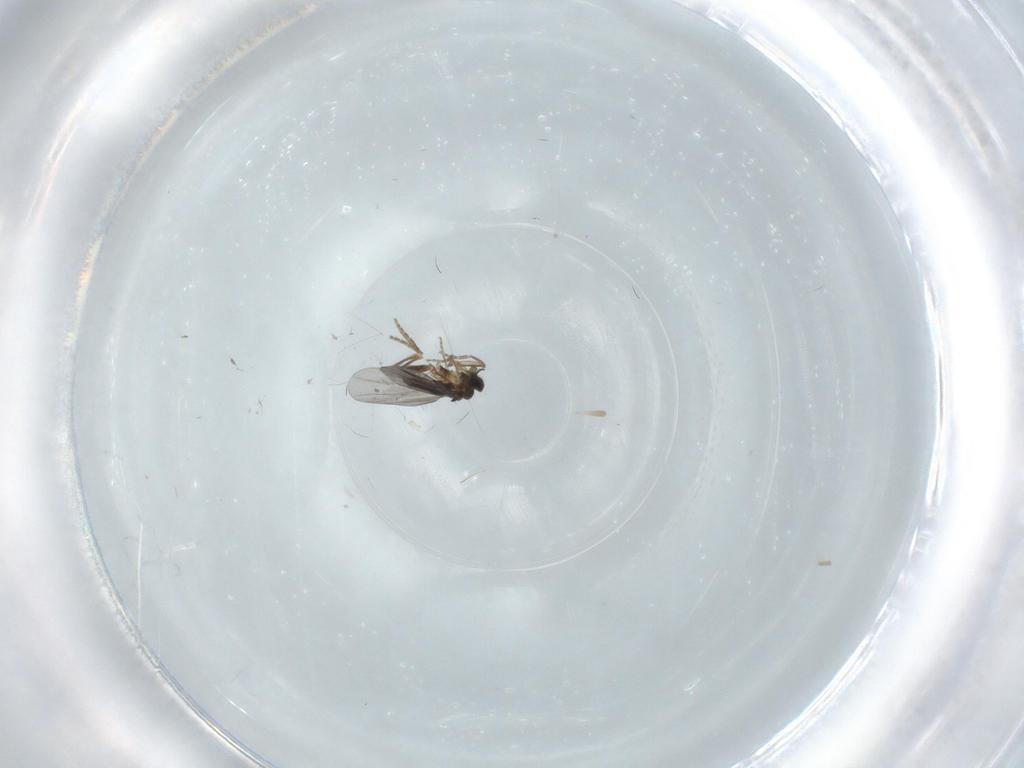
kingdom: Animalia
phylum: Arthropoda
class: Insecta
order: Diptera
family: Phoridae
